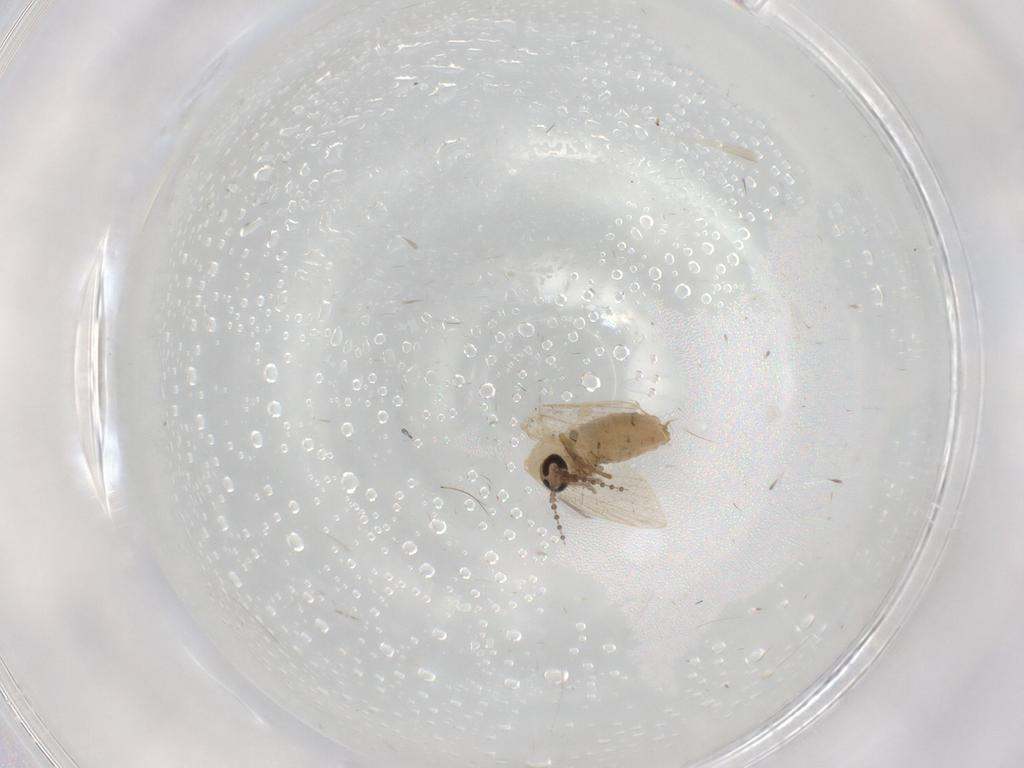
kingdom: Animalia
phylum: Arthropoda
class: Insecta
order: Diptera
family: Psychodidae
